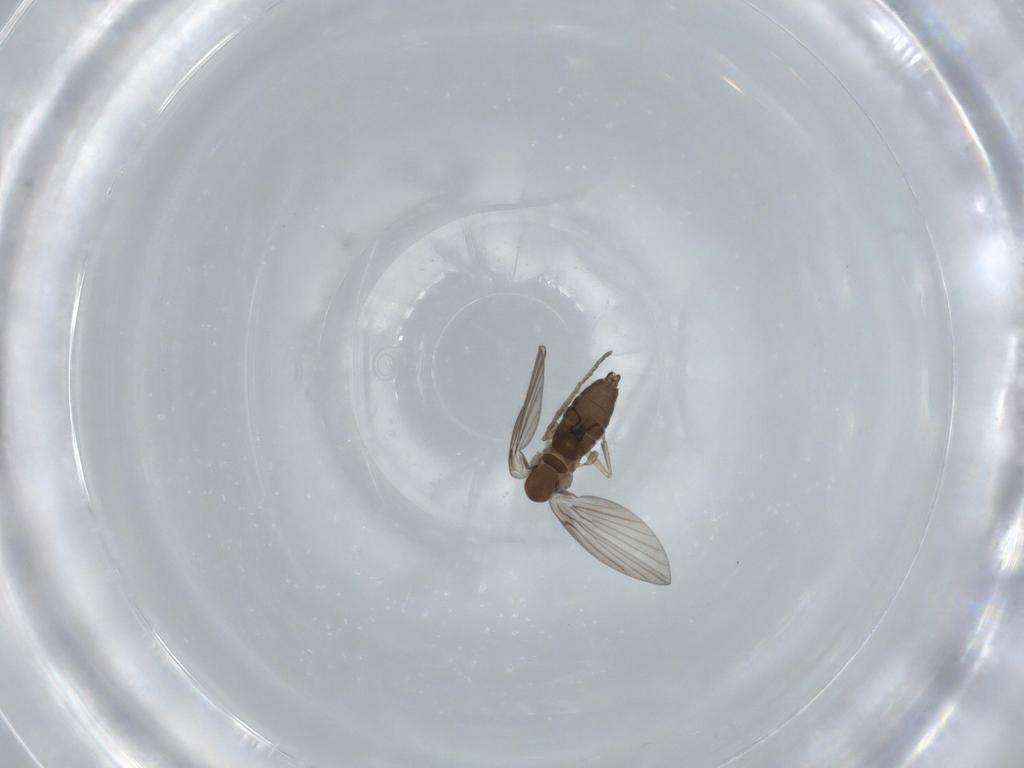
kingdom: Animalia
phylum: Arthropoda
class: Insecta
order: Diptera
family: Psychodidae
